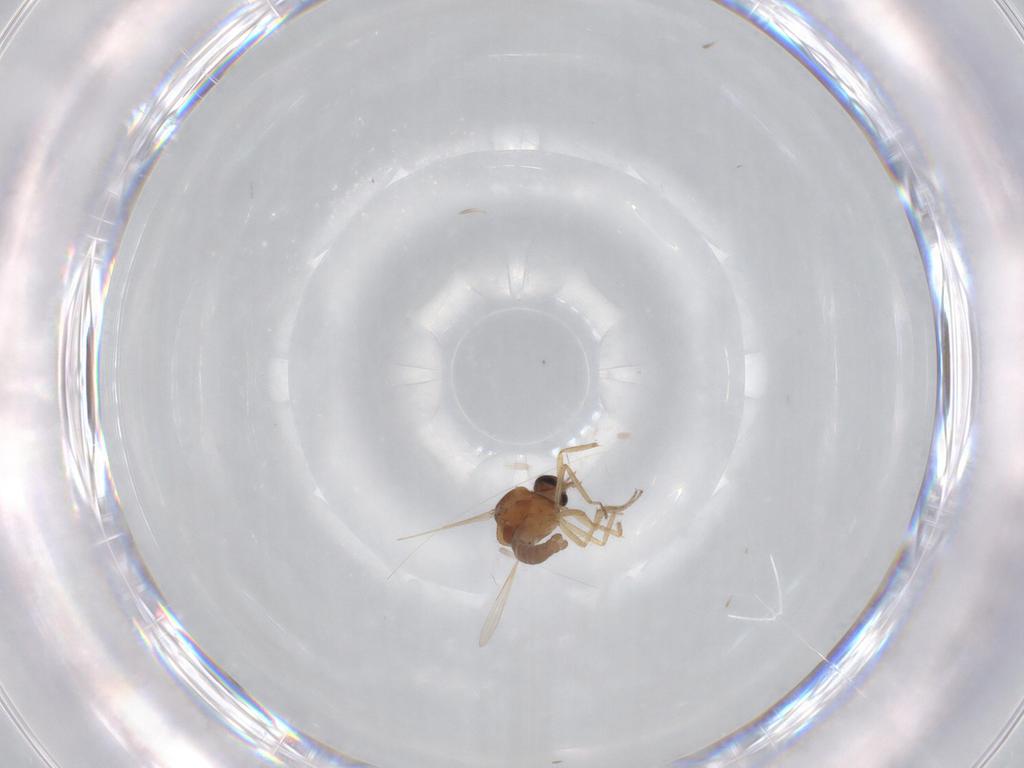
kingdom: Animalia
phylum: Arthropoda
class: Insecta
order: Diptera
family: Ceratopogonidae
